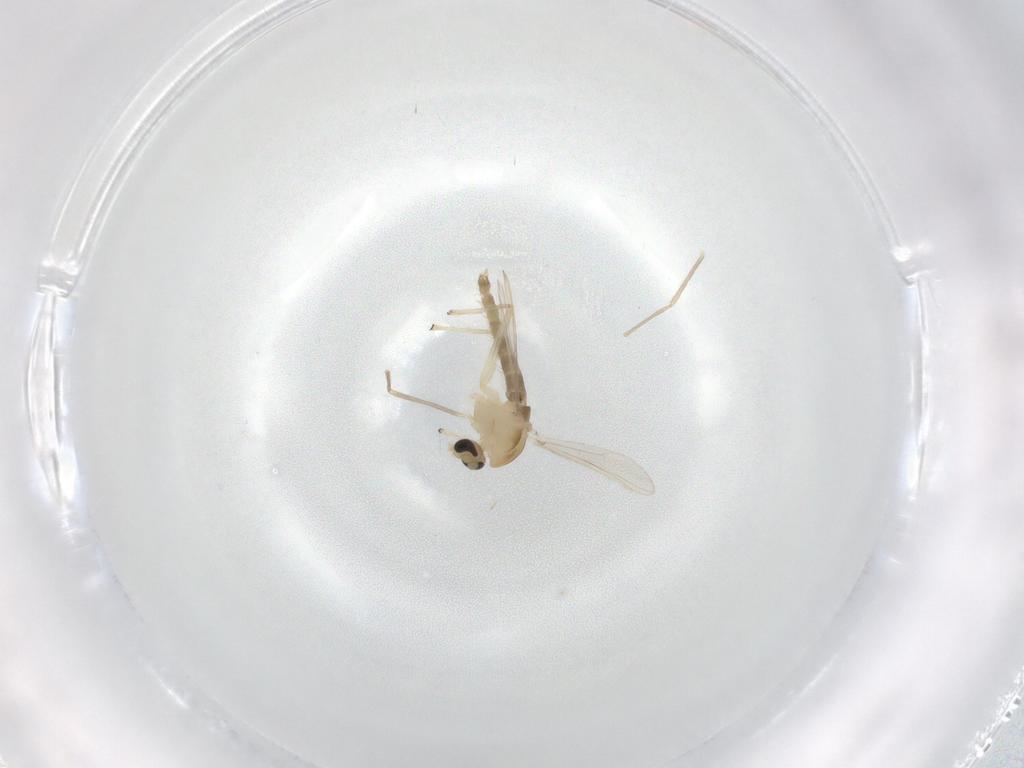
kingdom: Animalia
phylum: Arthropoda
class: Insecta
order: Diptera
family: Chironomidae
